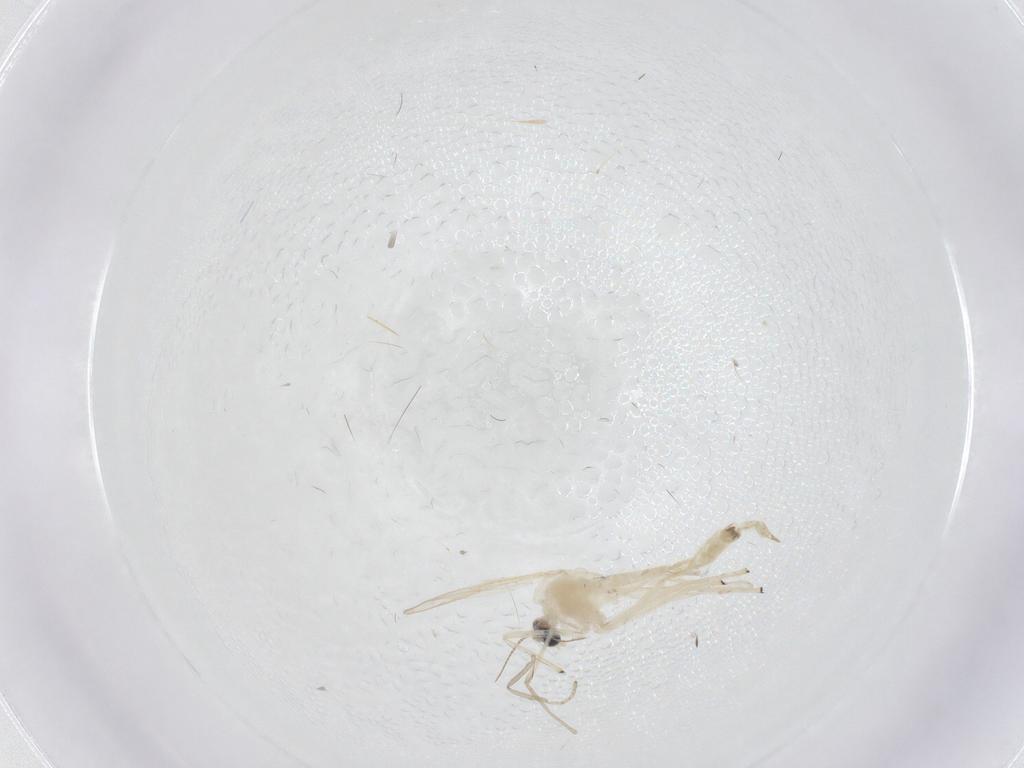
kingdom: Animalia
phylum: Arthropoda
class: Insecta
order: Diptera
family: Chironomidae
